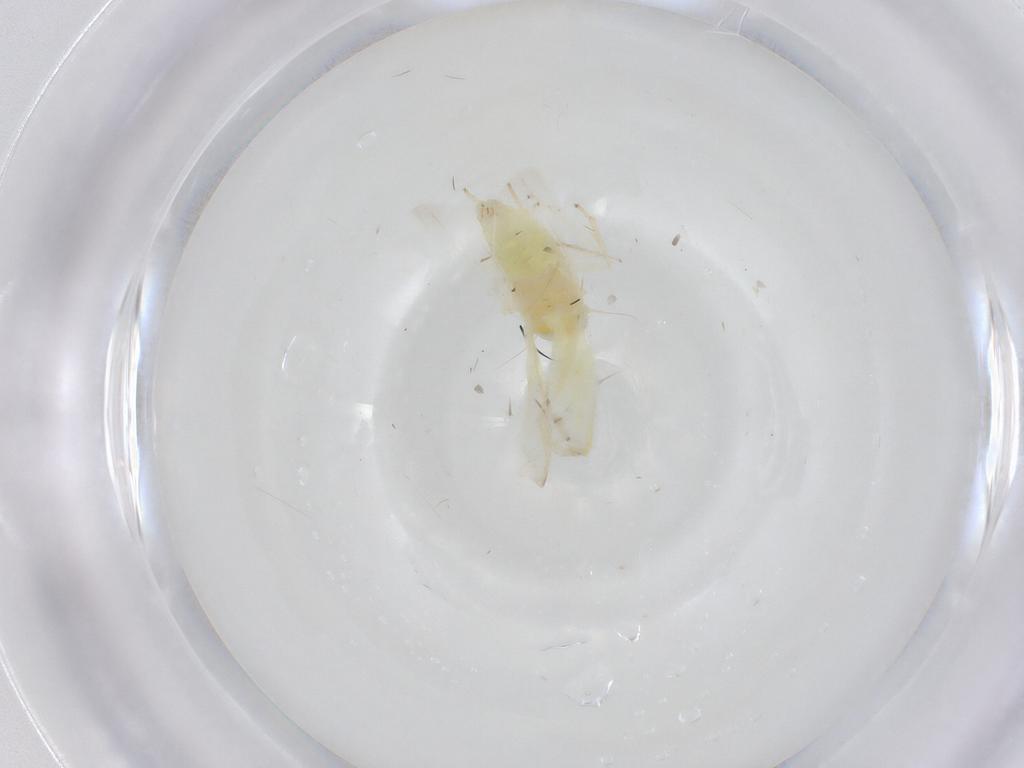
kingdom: Animalia
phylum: Arthropoda
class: Insecta
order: Hemiptera
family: Cicadellidae
